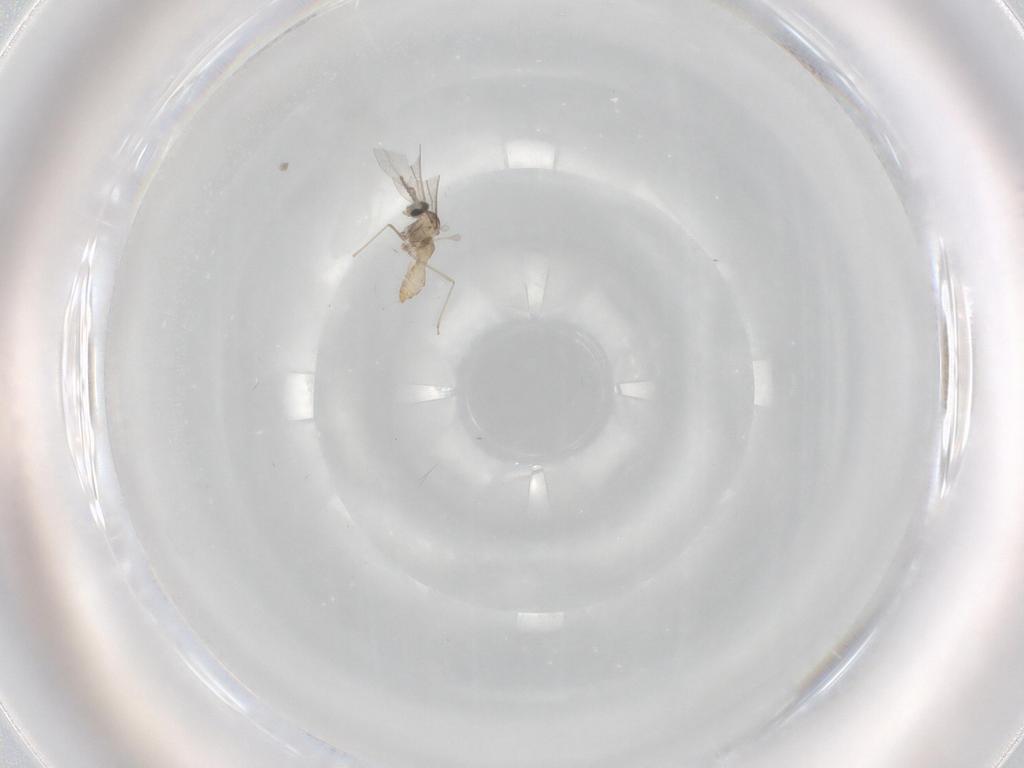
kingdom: Animalia
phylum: Arthropoda
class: Insecta
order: Diptera
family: Cecidomyiidae
